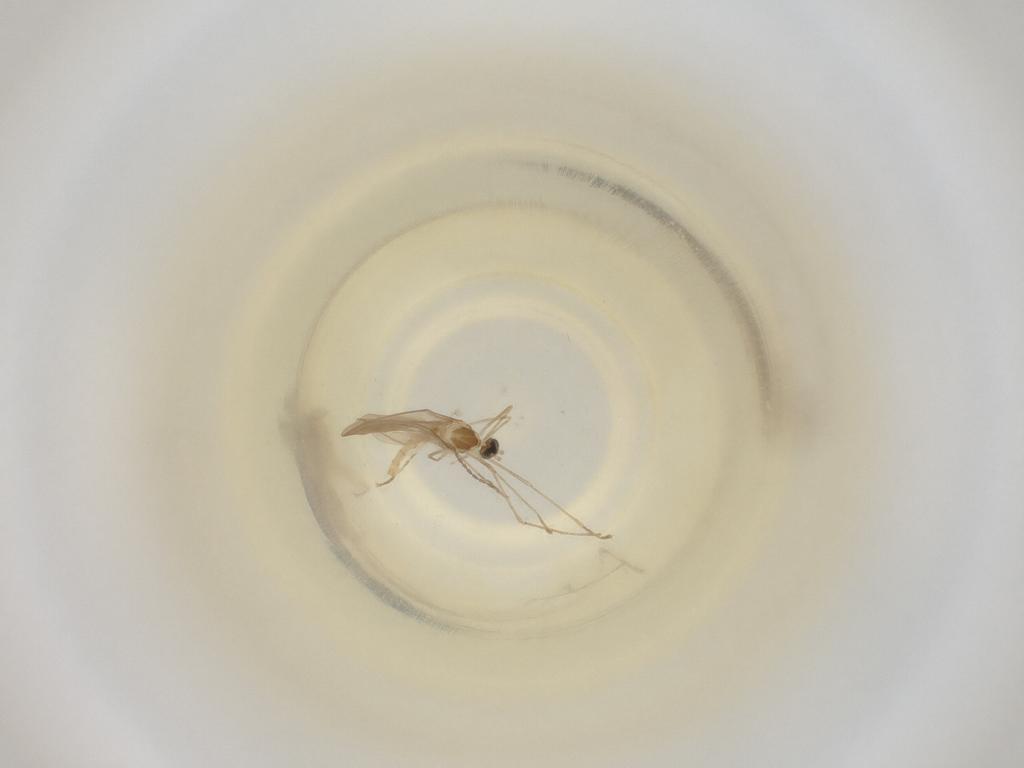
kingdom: Animalia
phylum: Arthropoda
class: Insecta
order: Diptera
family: Cecidomyiidae
